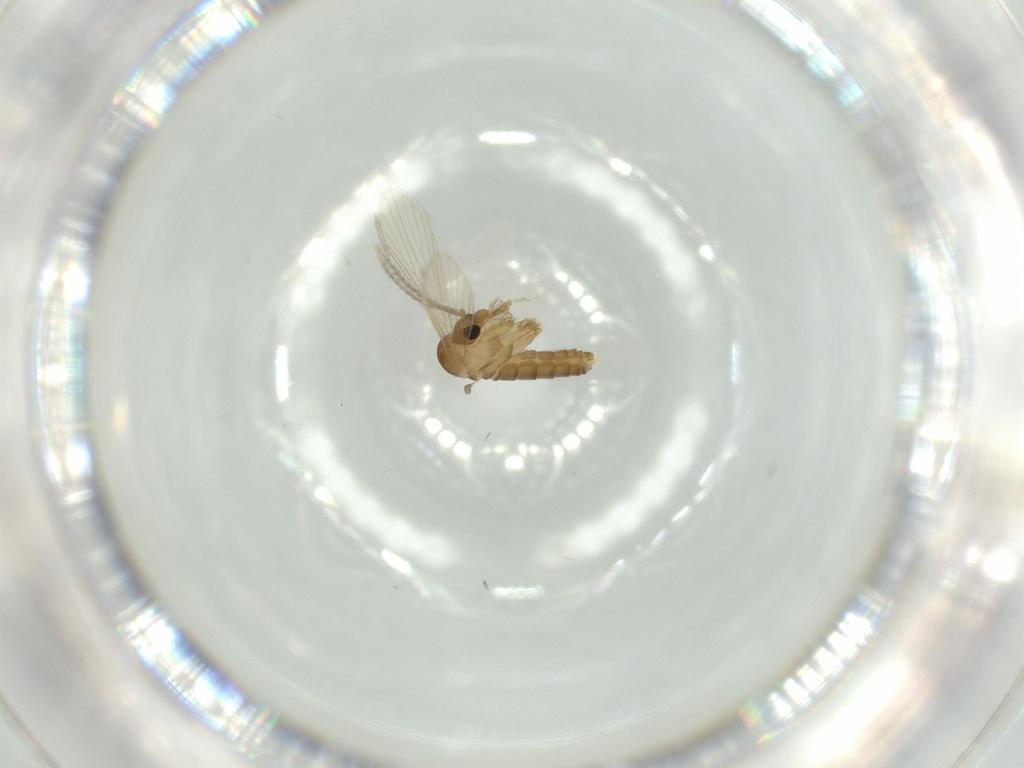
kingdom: Animalia
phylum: Arthropoda
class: Insecta
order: Diptera
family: Psychodidae
